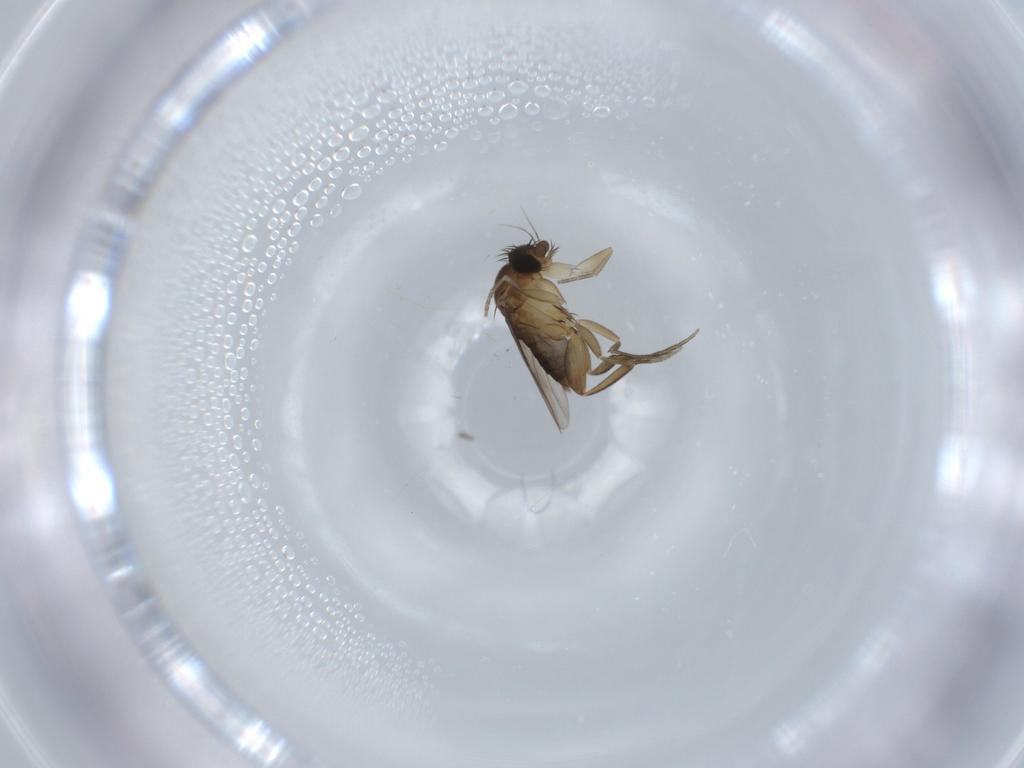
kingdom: Animalia
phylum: Arthropoda
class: Insecta
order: Diptera
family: Phoridae
